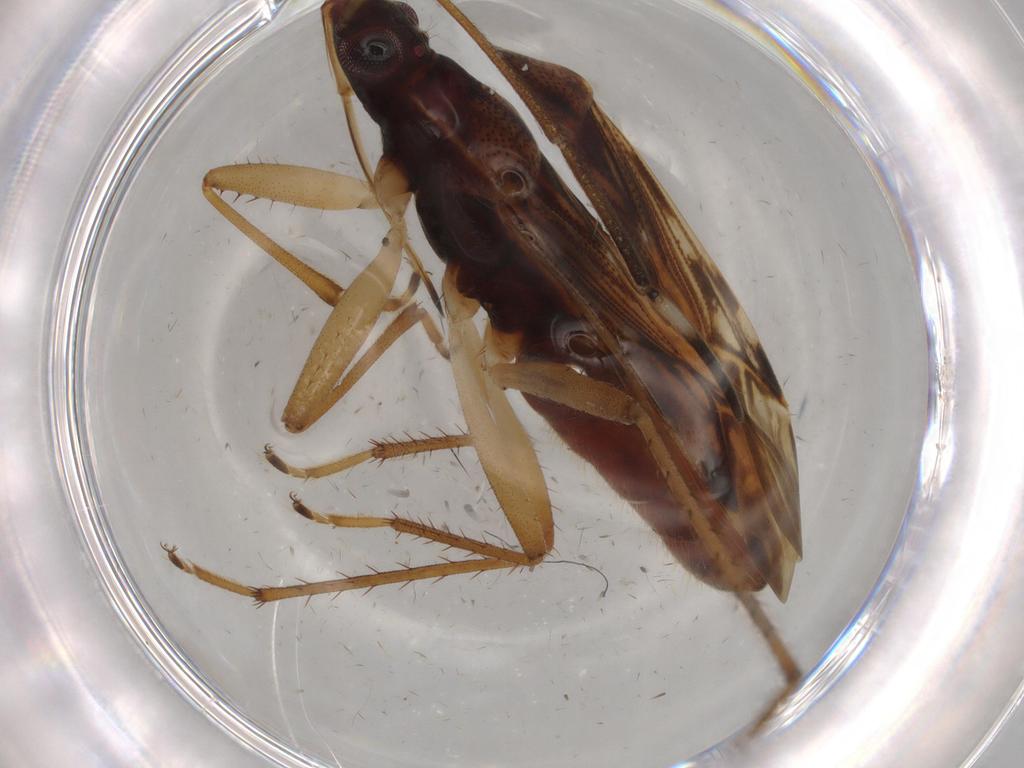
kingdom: Animalia
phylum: Arthropoda
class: Insecta
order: Hemiptera
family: Rhyparochromidae
